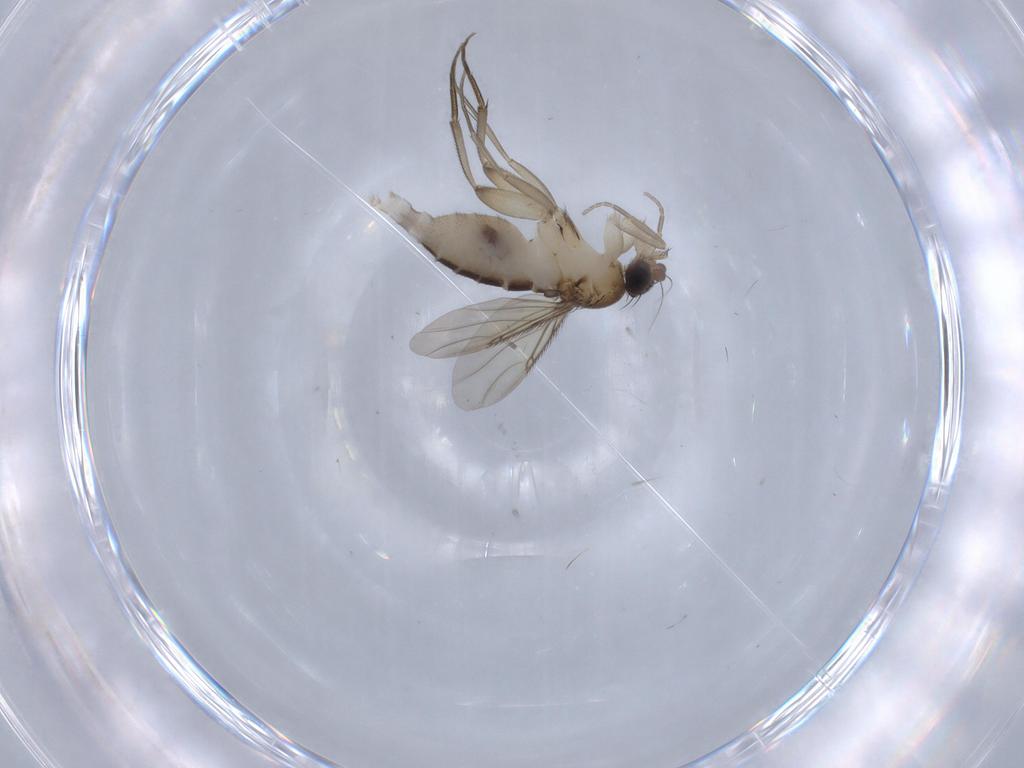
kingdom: Animalia
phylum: Arthropoda
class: Insecta
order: Diptera
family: Phoridae
